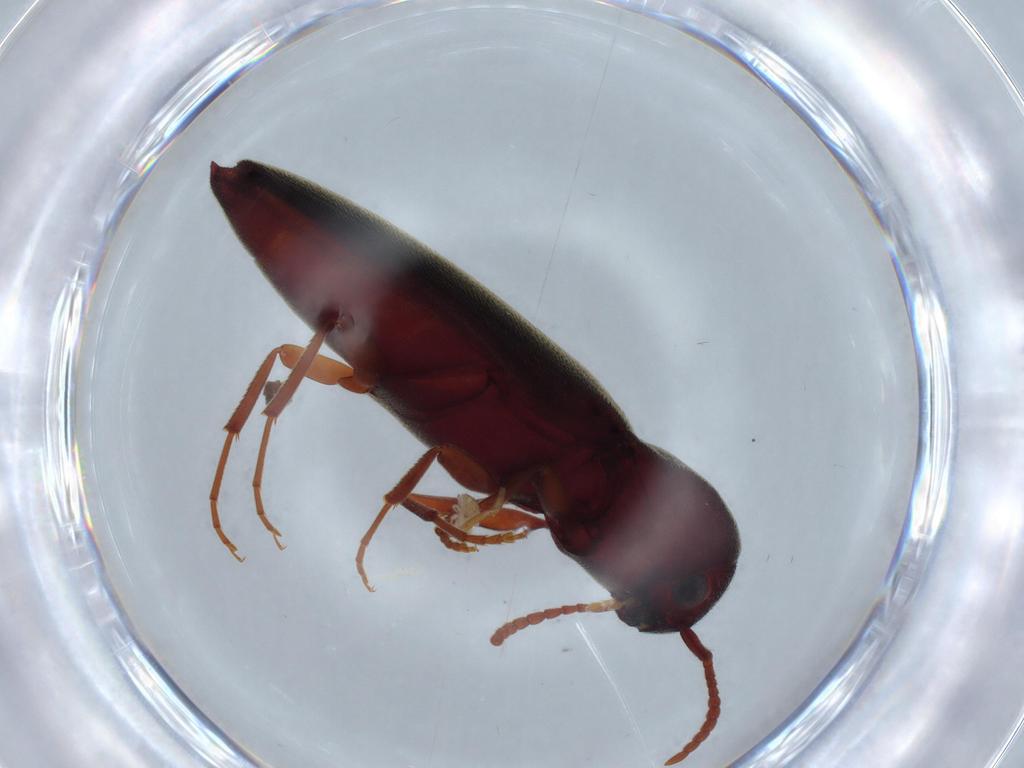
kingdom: Animalia
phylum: Arthropoda
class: Insecta
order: Coleoptera
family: Eucnemidae
